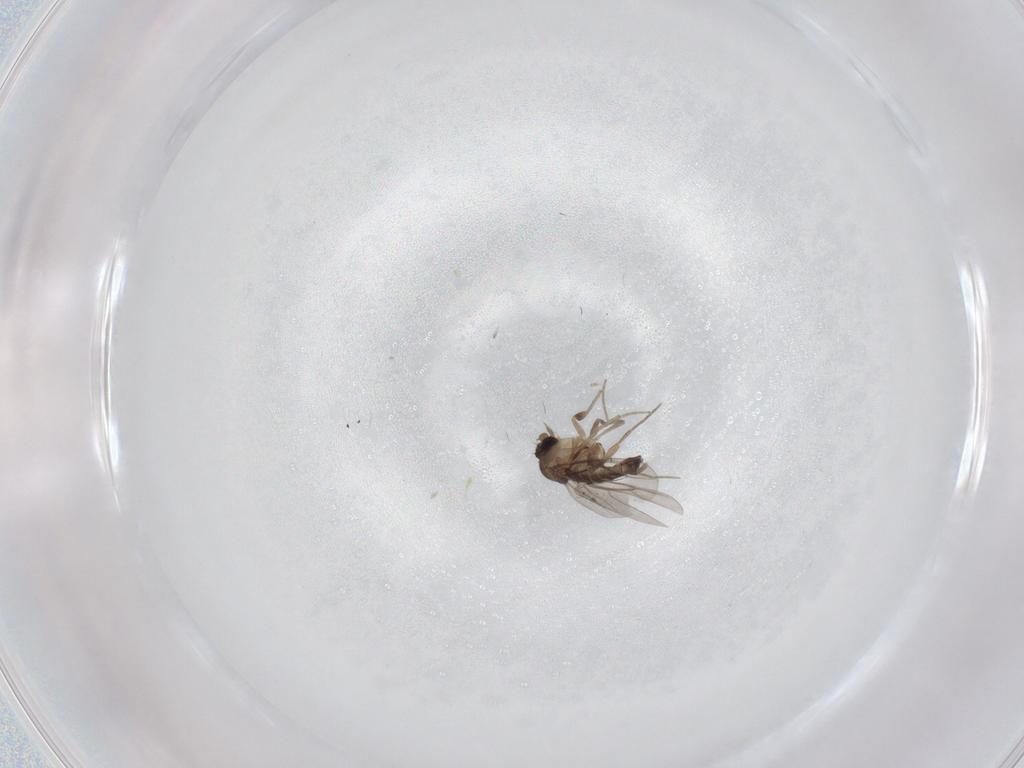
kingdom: Animalia
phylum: Arthropoda
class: Insecta
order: Diptera
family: Phoridae
